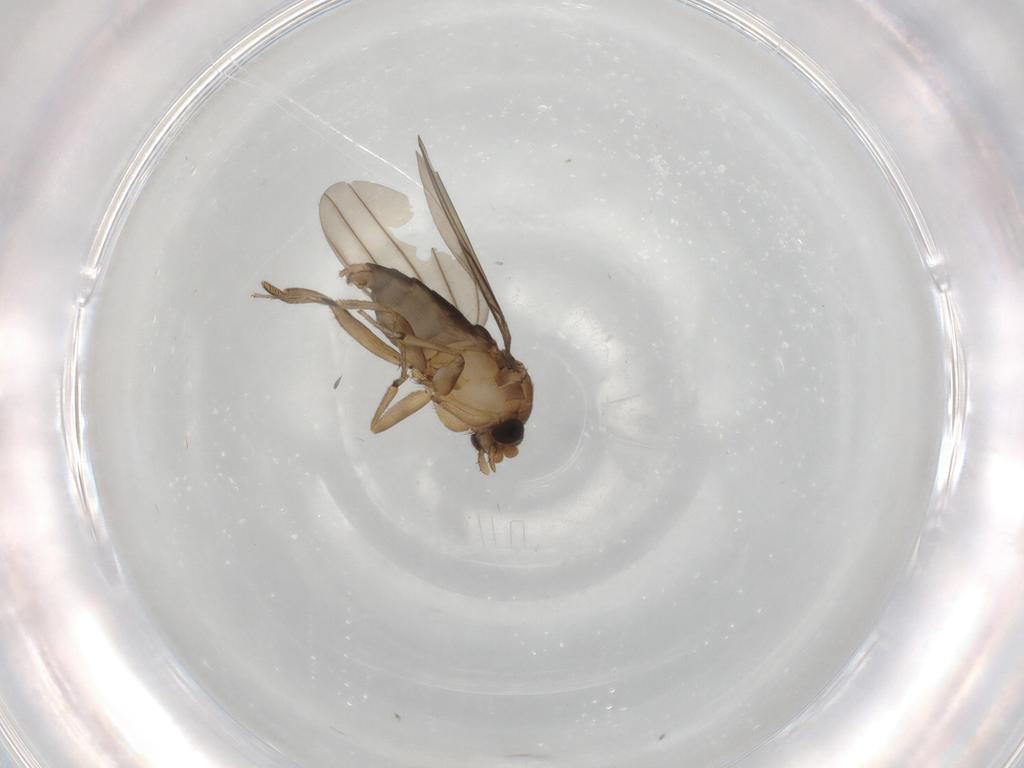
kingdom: Animalia
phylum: Arthropoda
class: Insecta
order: Diptera
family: Phoridae
